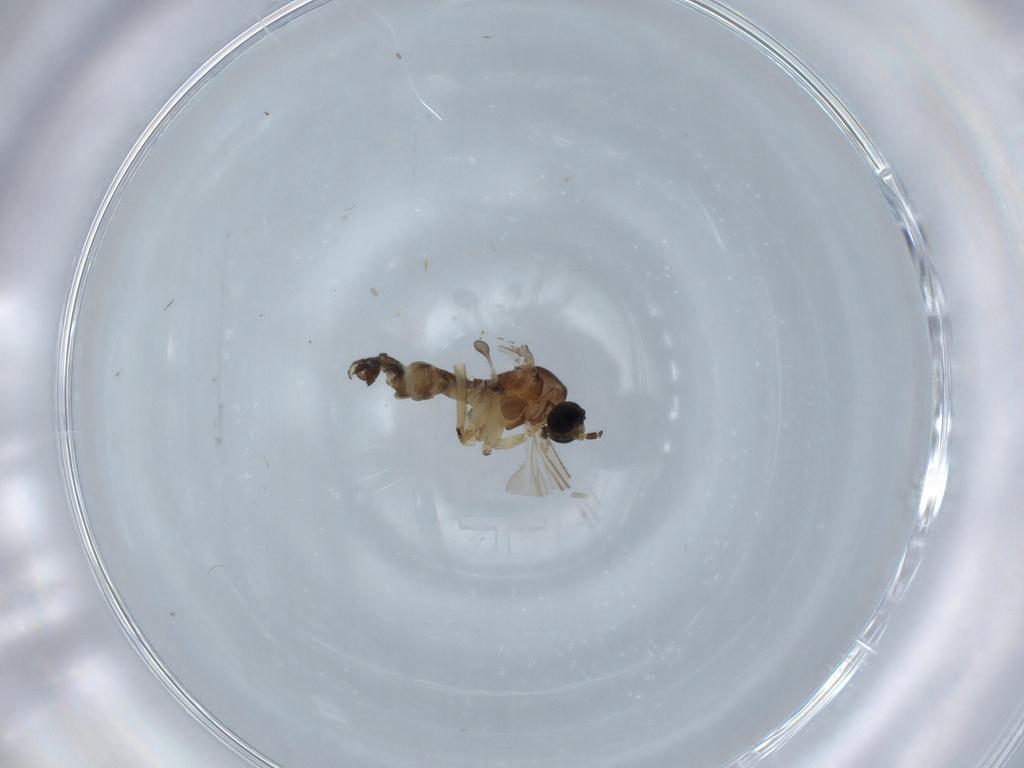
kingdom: Animalia
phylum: Arthropoda
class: Insecta
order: Diptera
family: Sciaridae
